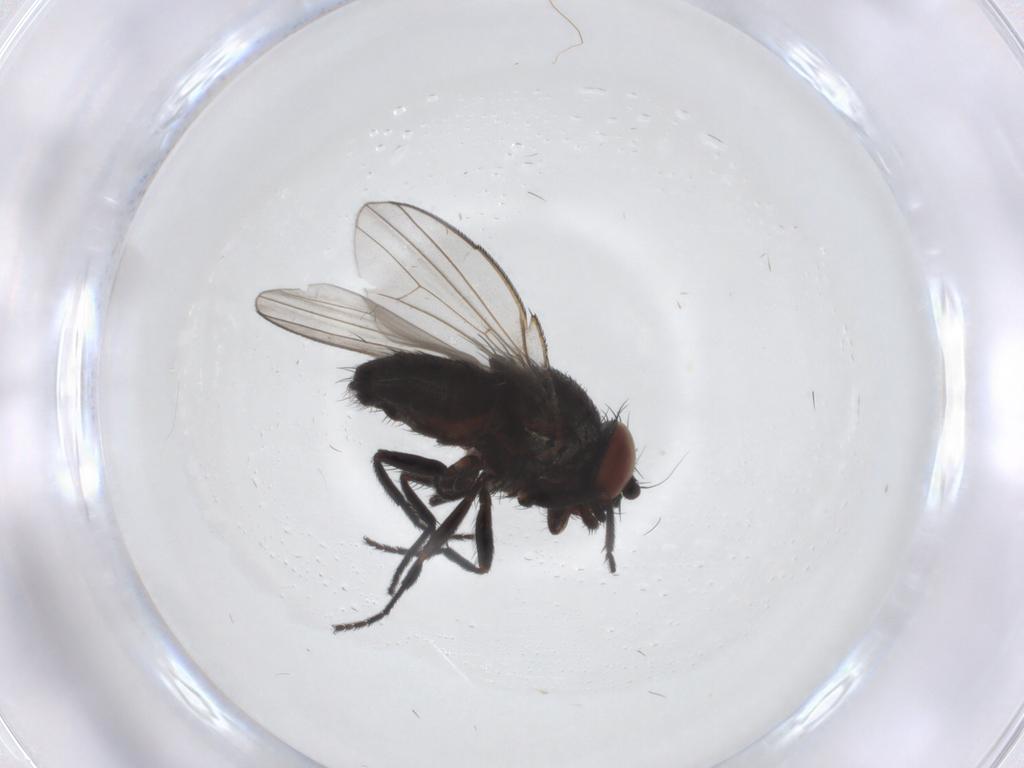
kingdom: Animalia
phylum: Arthropoda
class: Insecta
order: Diptera
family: Milichiidae
